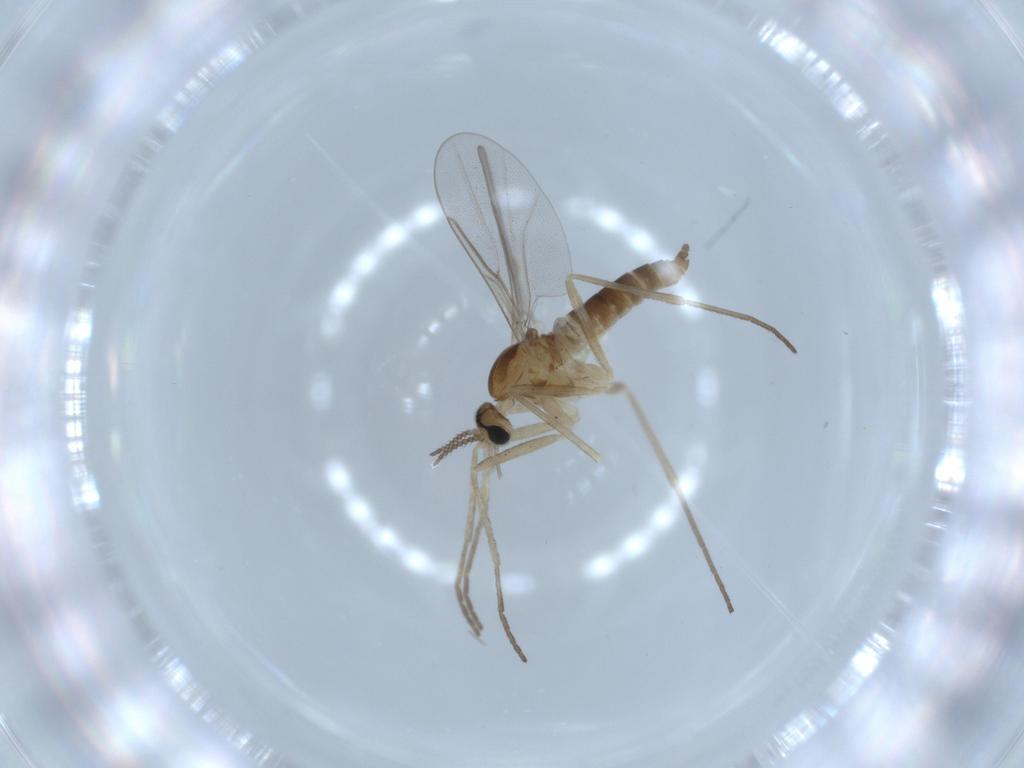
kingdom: Animalia
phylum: Arthropoda
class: Insecta
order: Diptera
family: Cecidomyiidae
